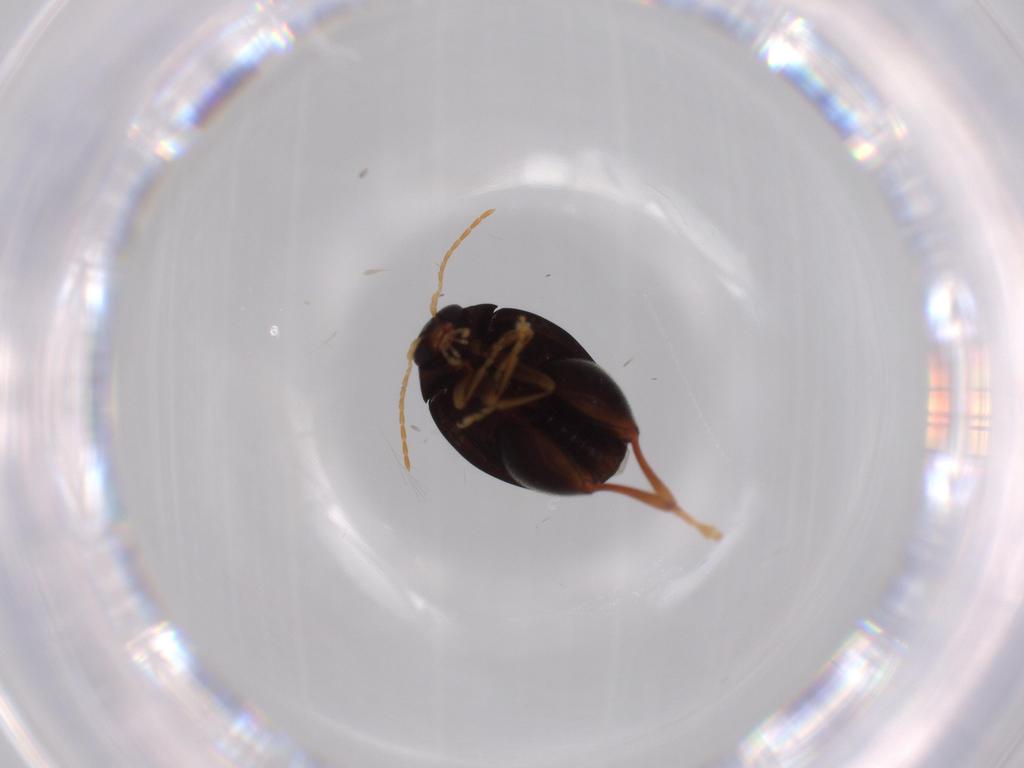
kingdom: Animalia
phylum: Arthropoda
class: Insecta
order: Coleoptera
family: Chrysomelidae
